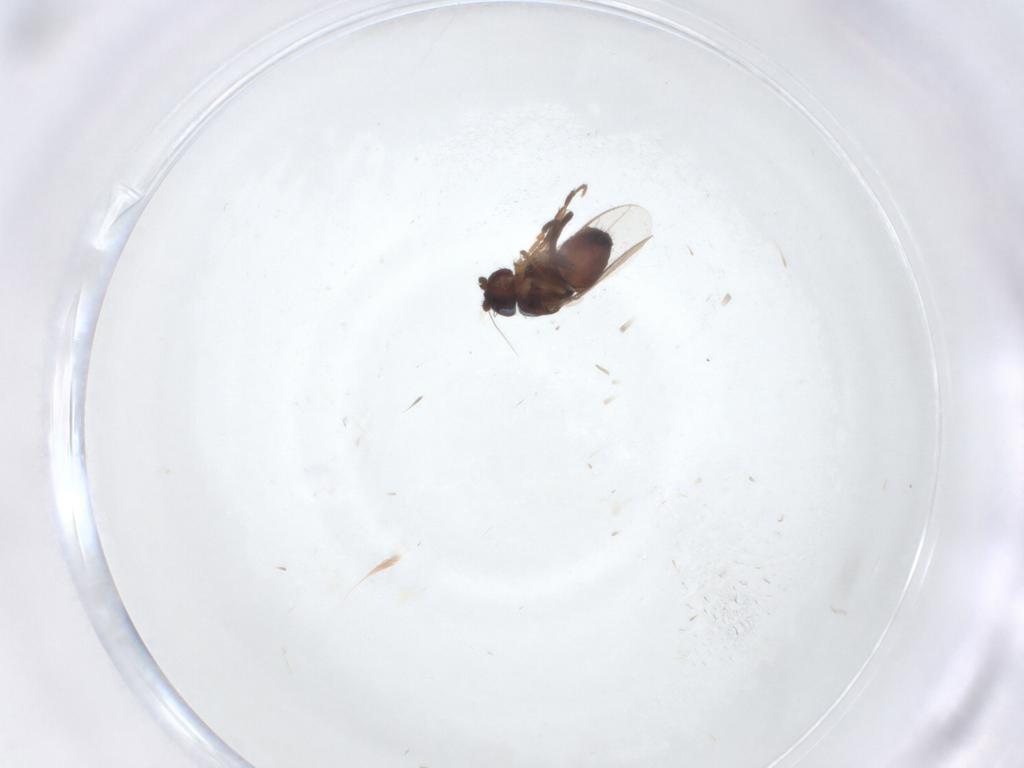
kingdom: Animalia
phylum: Arthropoda
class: Insecta
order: Diptera
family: Sphaeroceridae
